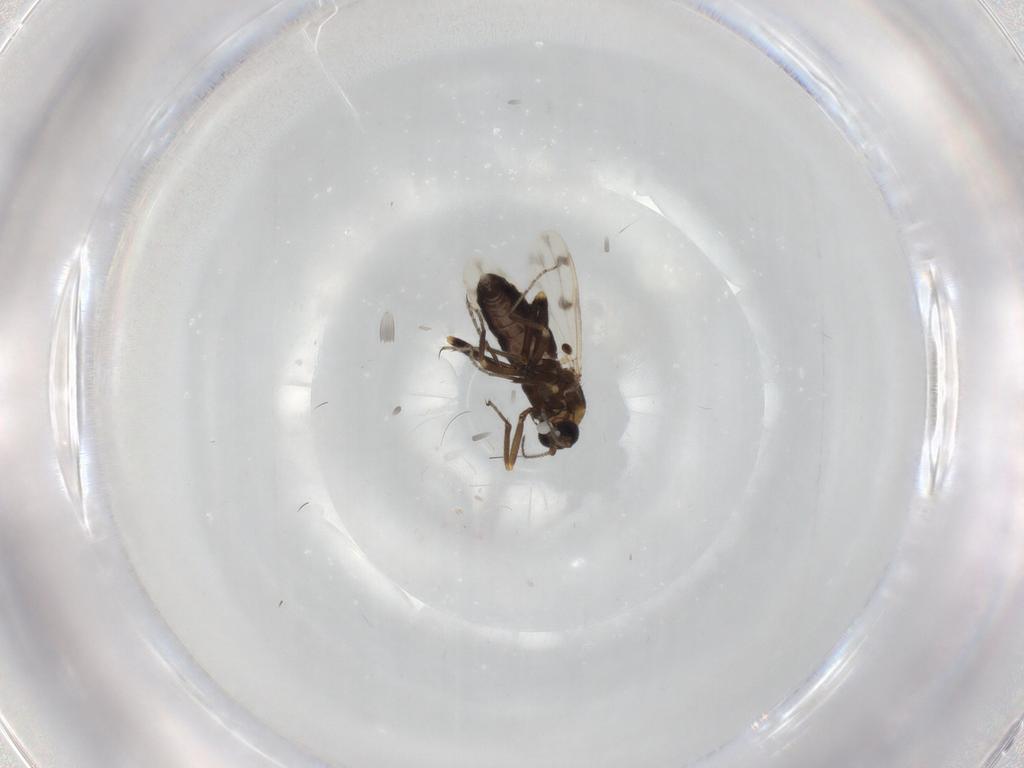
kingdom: Animalia
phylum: Arthropoda
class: Insecta
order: Diptera
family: Ceratopogonidae
